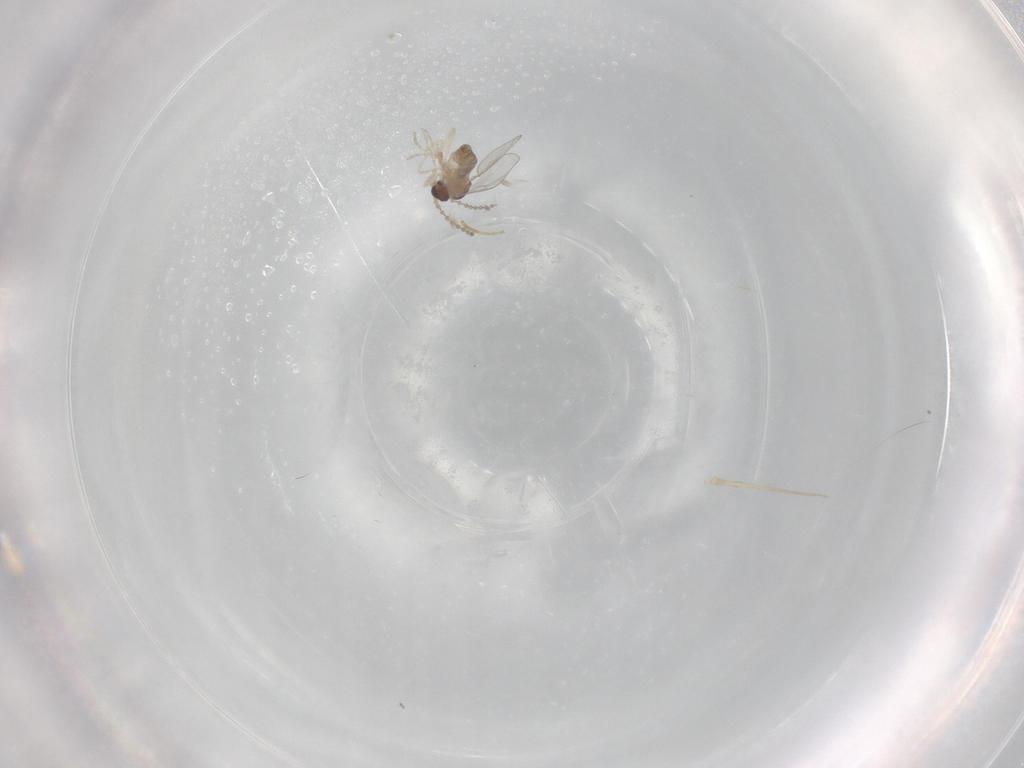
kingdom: Animalia
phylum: Arthropoda
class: Insecta
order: Diptera
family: Cecidomyiidae
